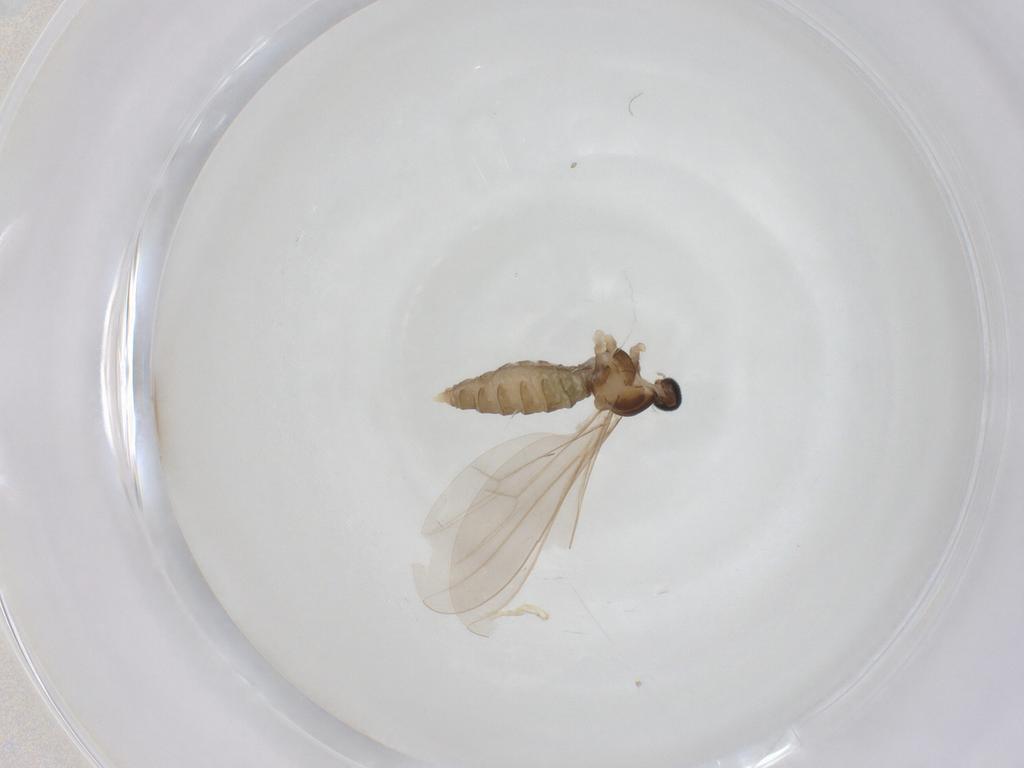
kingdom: Animalia
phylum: Arthropoda
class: Insecta
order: Diptera
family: Cecidomyiidae
